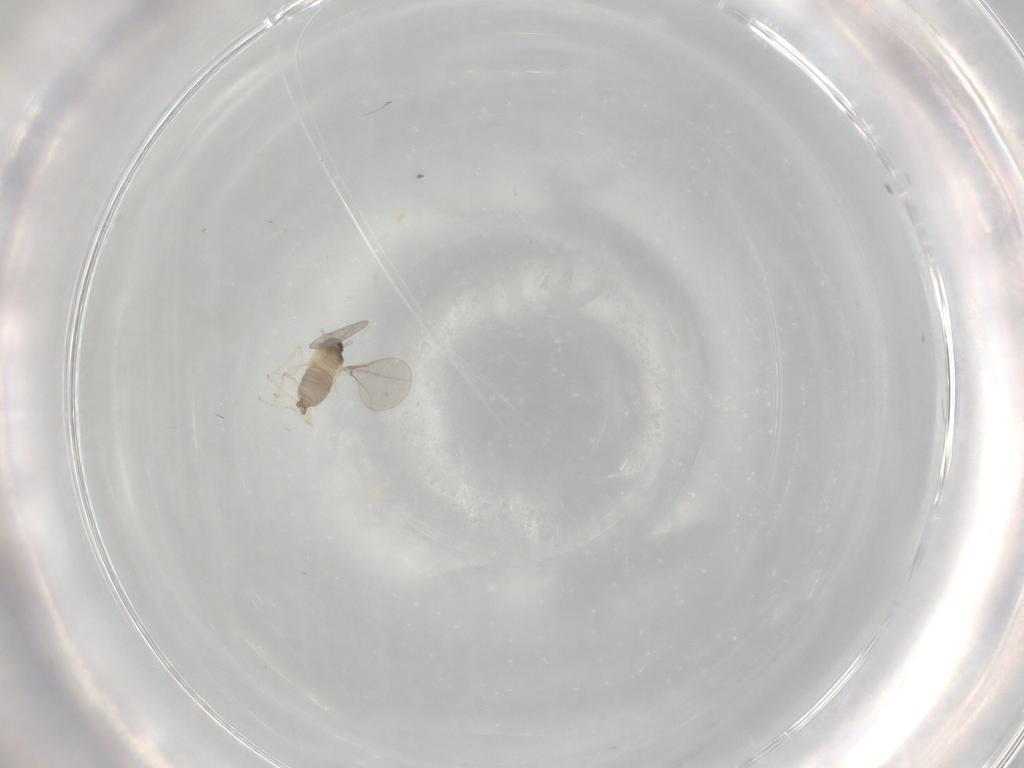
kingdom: Animalia
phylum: Arthropoda
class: Insecta
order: Diptera
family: Cecidomyiidae
